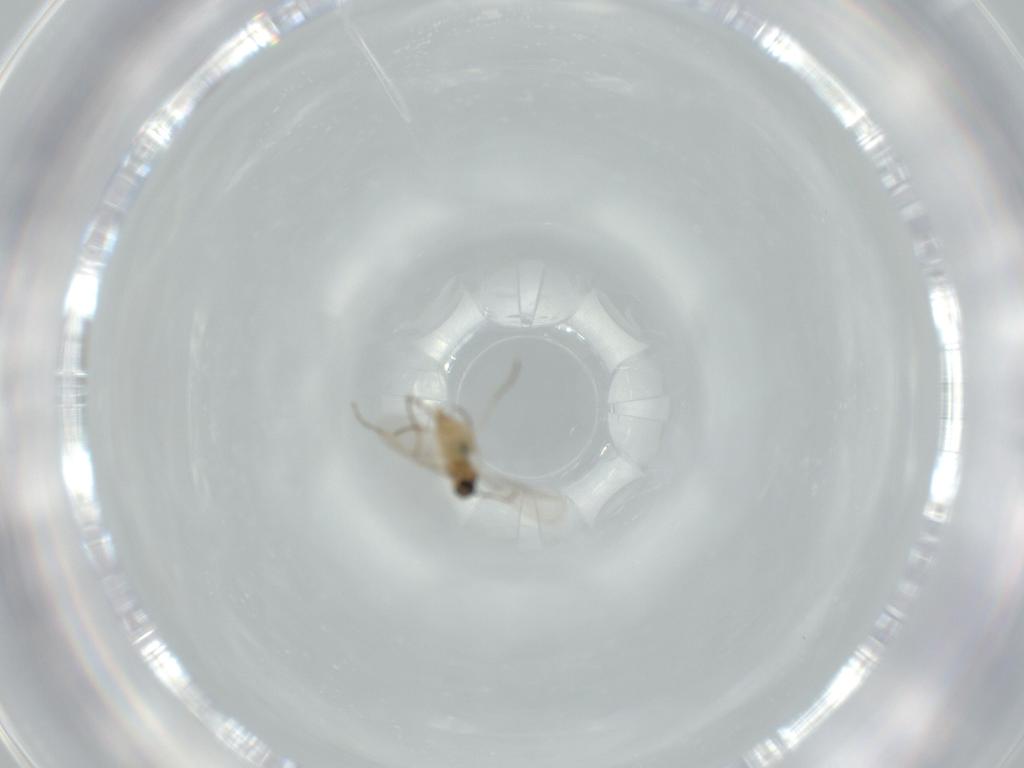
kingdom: Animalia
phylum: Arthropoda
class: Insecta
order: Diptera
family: Cecidomyiidae
